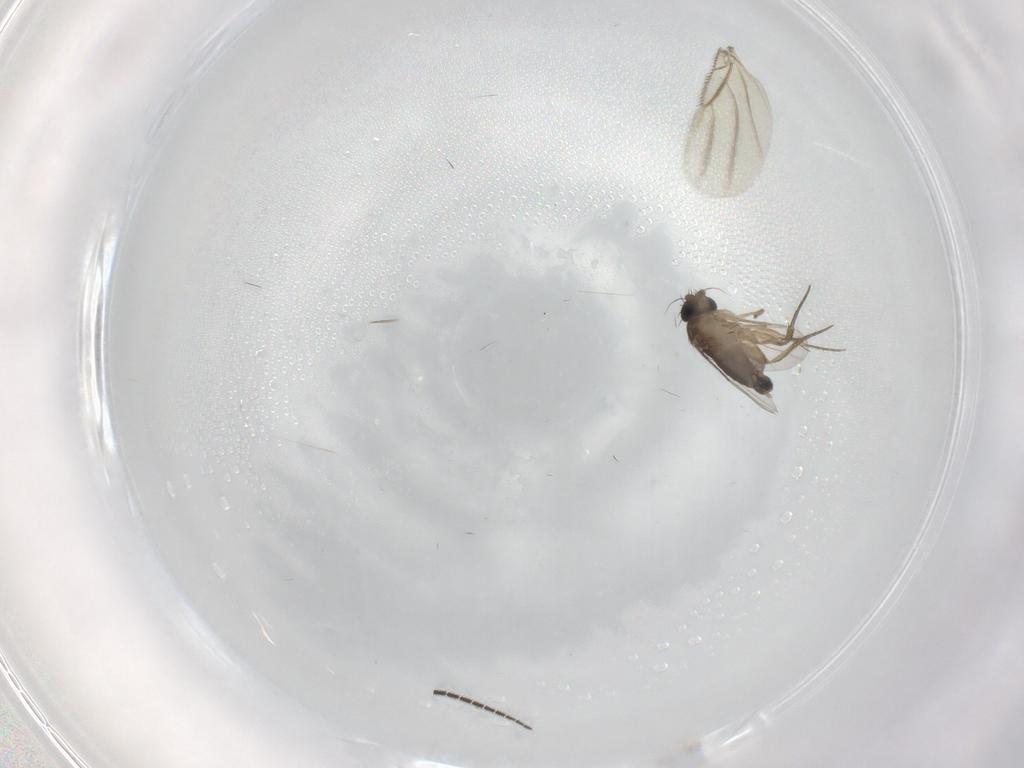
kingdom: Animalia
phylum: Arthropoda
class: Insecta
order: Diptera
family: Phoridae
